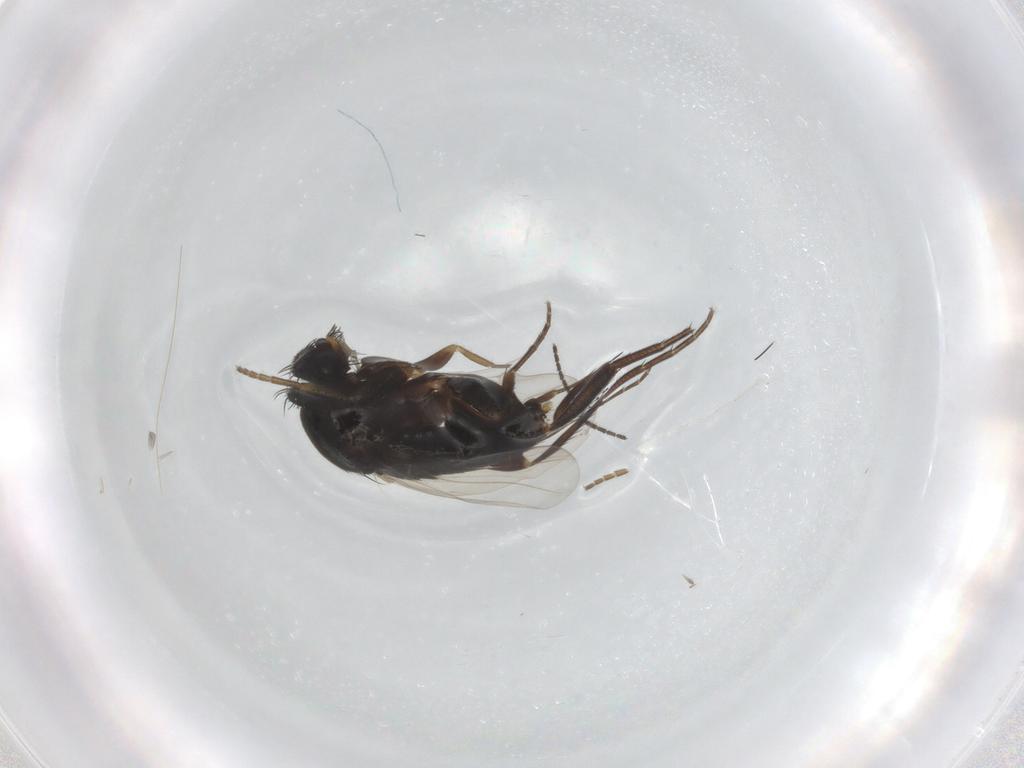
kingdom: Animalia
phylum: Arthropoda
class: Insecta
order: Diptera
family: Phoridae
